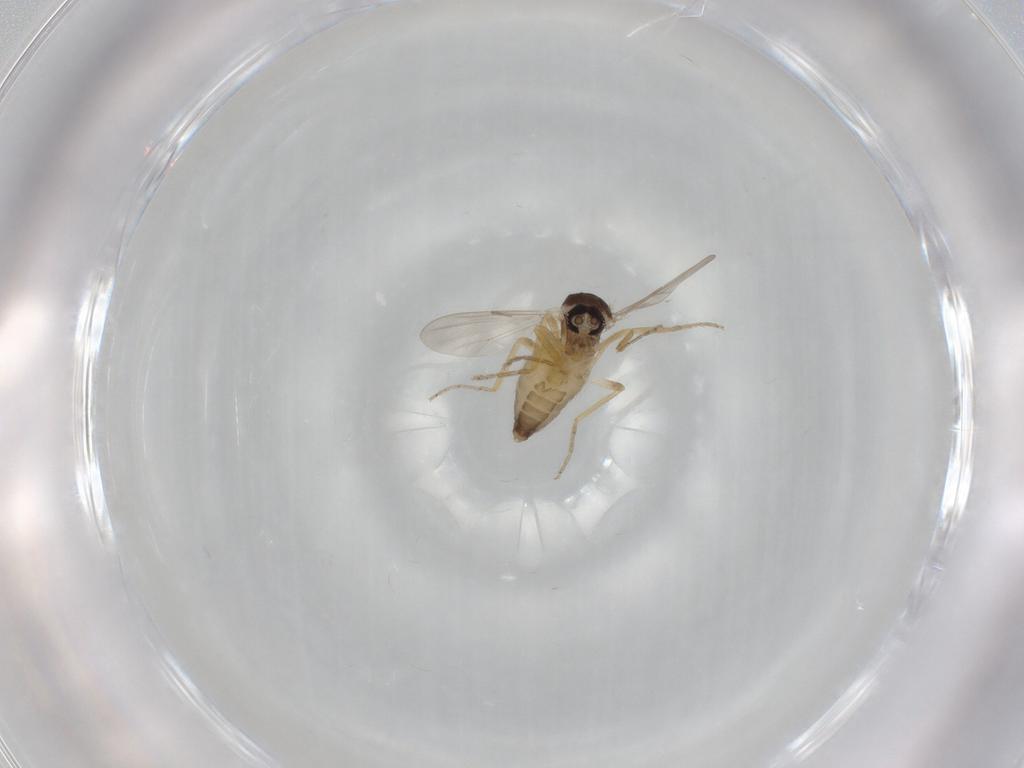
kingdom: Animalia
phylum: Arthropoda
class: Insecta
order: Diptera
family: Ceratopogonidae
